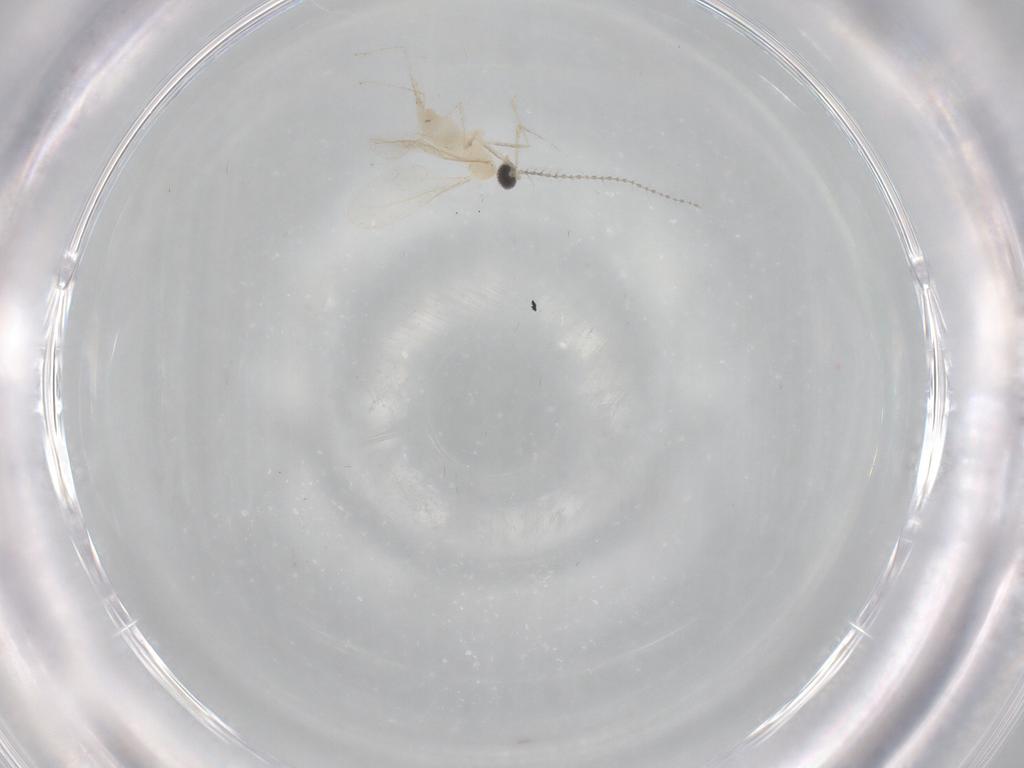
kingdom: Animalia
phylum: Arthropoda
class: Insecta
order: Diptera
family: Cecidomyiidae
